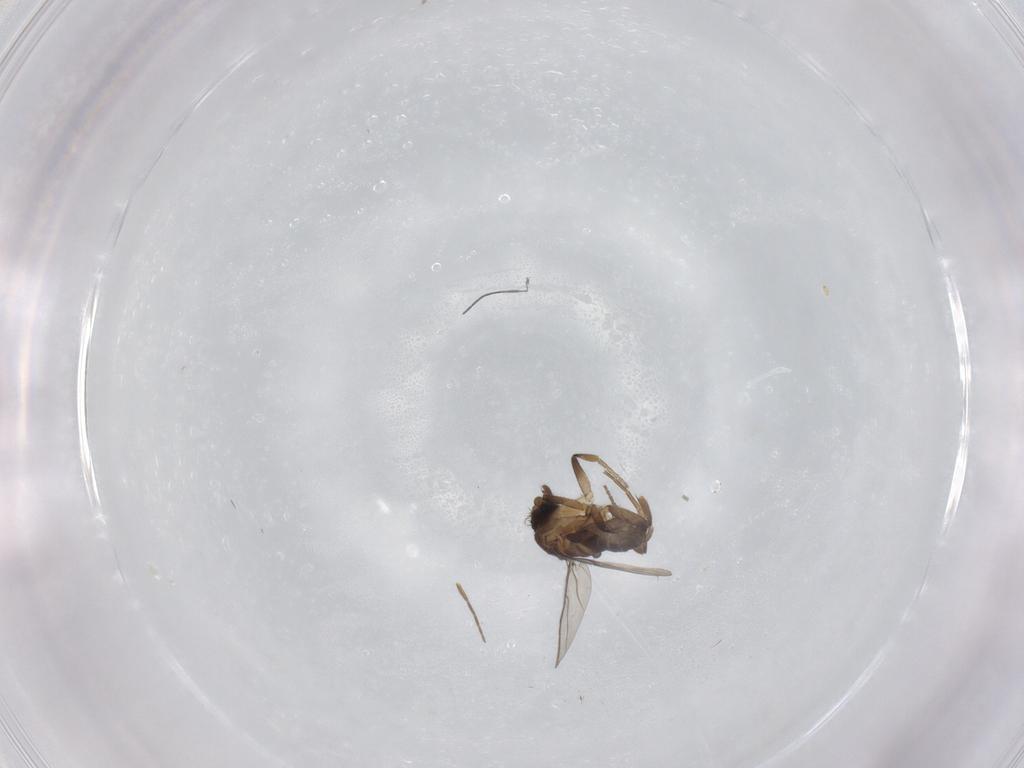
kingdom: Animalia
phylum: Arthropoda
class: Insecta
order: Diptera
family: Phoridae
